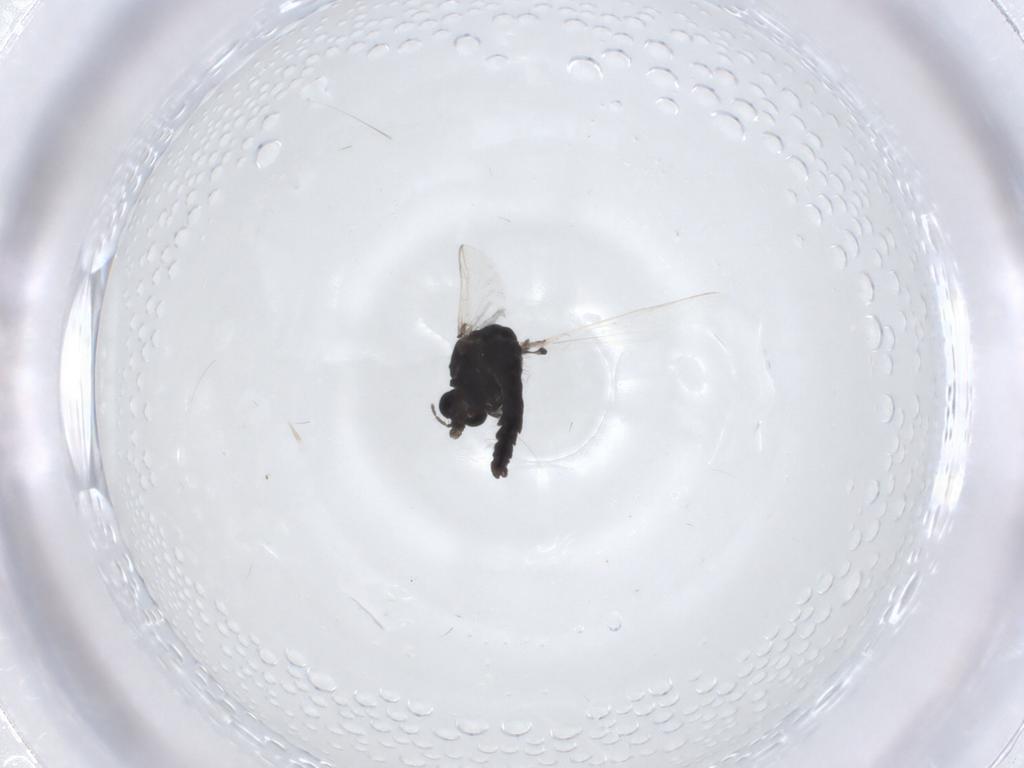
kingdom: Animalia
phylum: Arthropoda
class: Insecta
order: Diptera
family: Chironomidae
